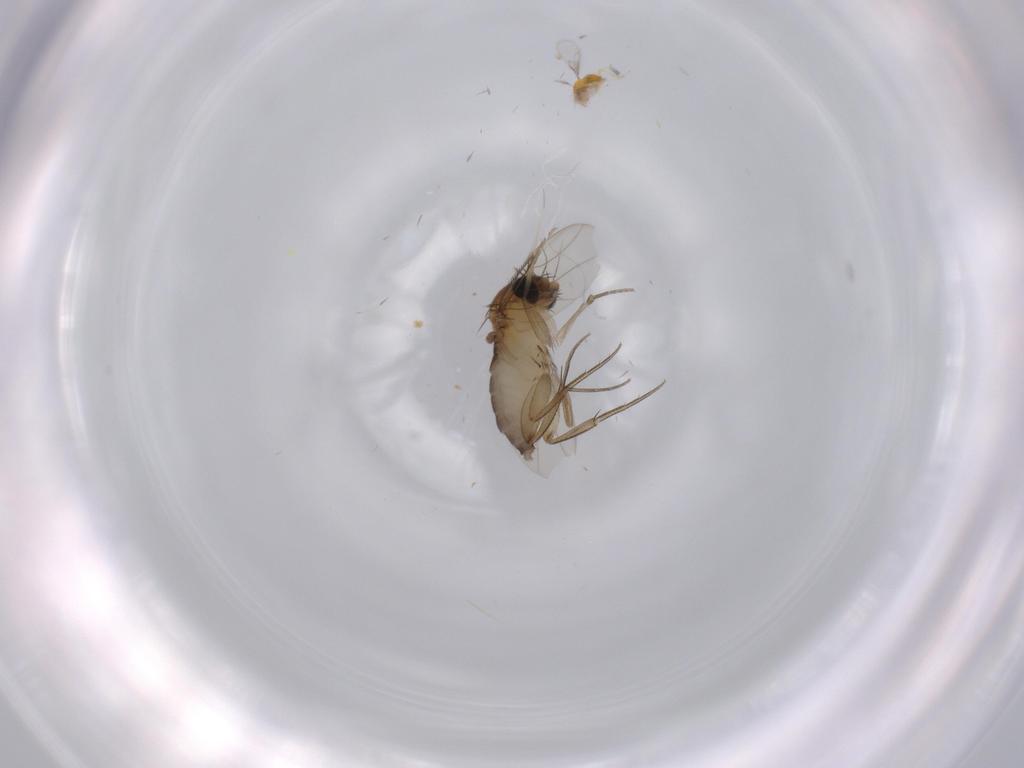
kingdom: Animalia
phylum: Arthropoda
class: Insecta
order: Diptera
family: Phoridae
